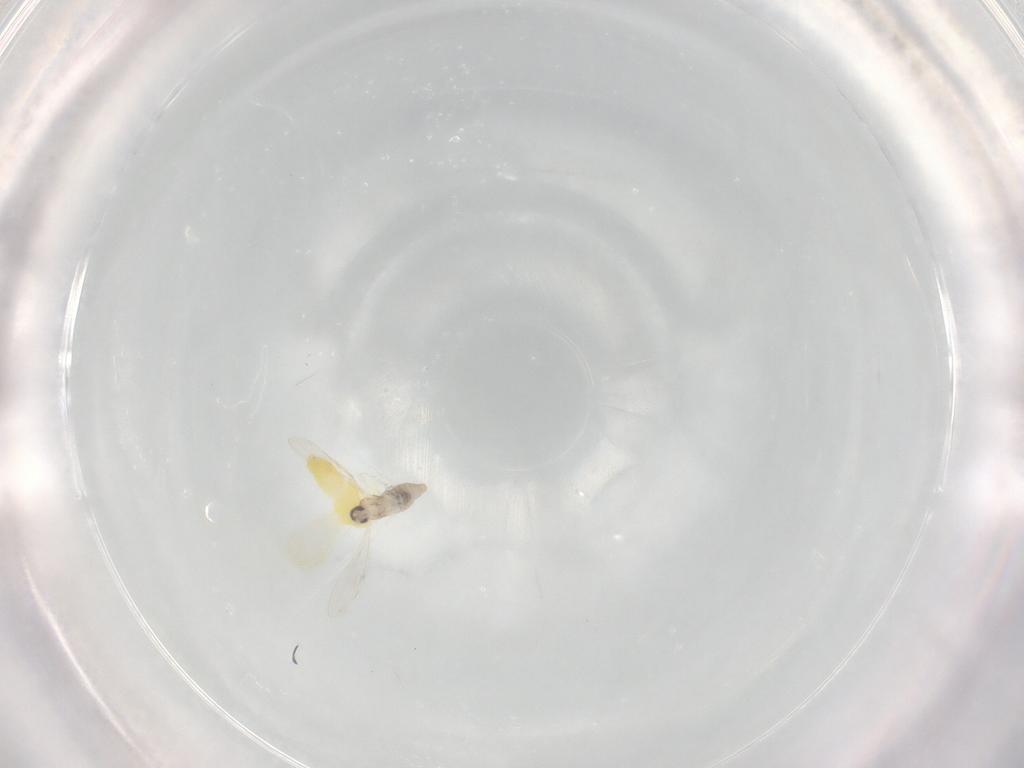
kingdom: Animalia
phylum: Arthropoda
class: Insecta
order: Diptera
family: Cecidomyiidae
